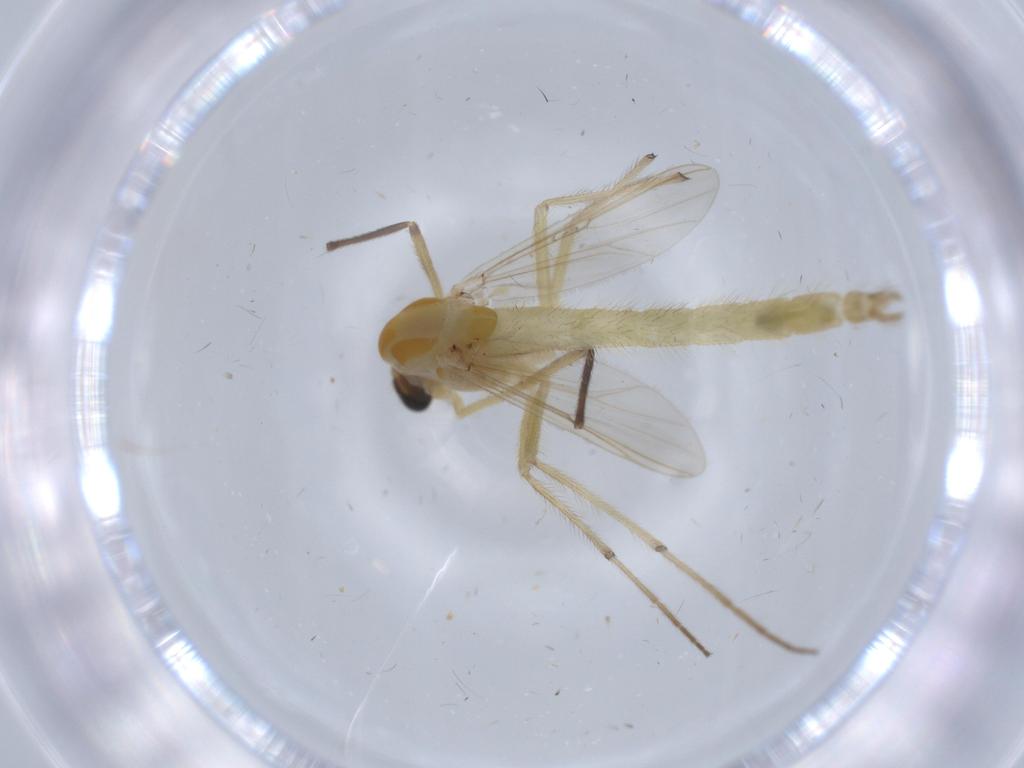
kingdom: Animalia
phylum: Arthropoda
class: Insecta
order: Diptera
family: Chironomidae
